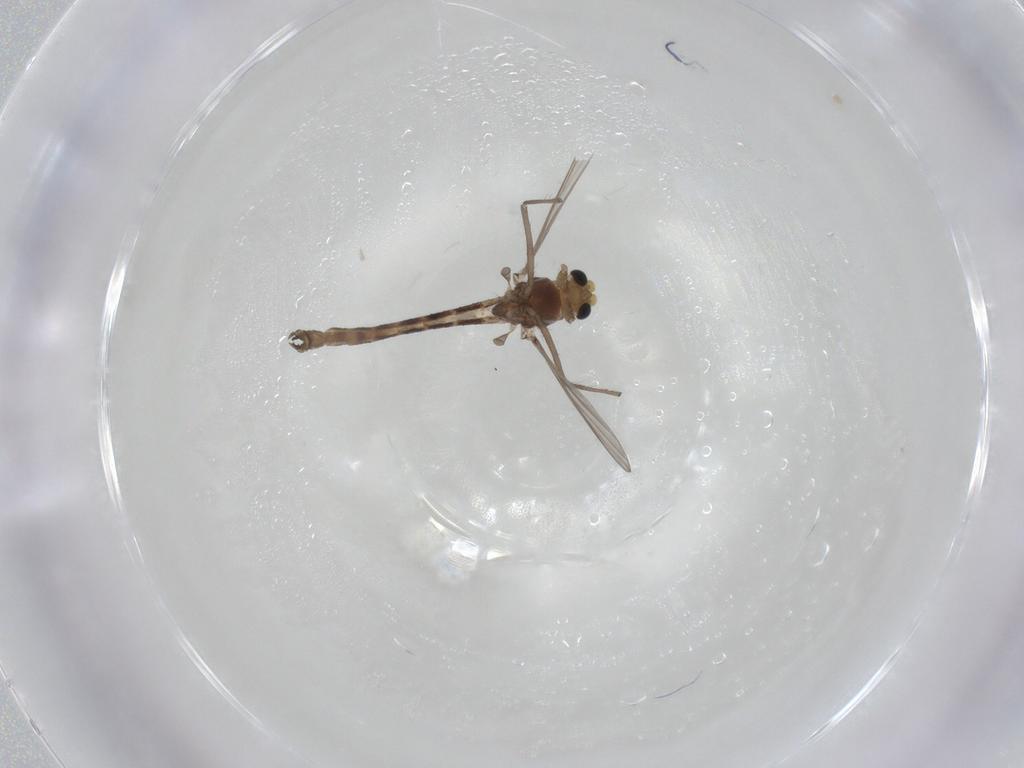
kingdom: Animalia
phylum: Arthropoda
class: Insecta
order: Diptera
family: Chironomidae
